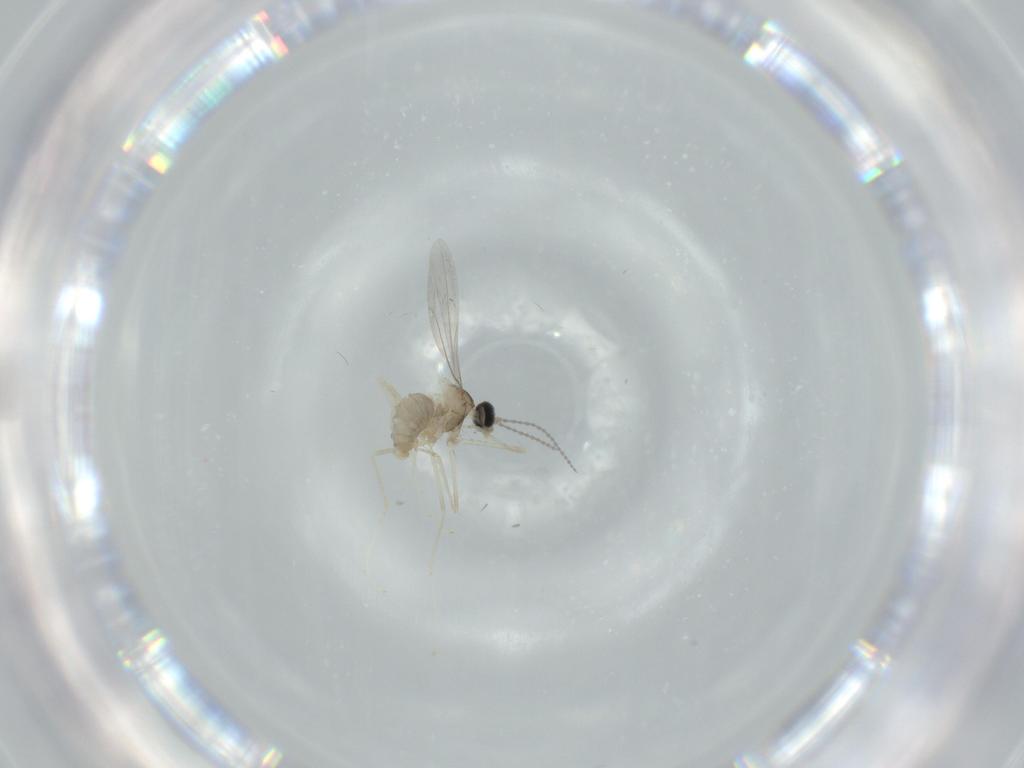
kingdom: Animalia
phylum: Arthropoda
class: Insecta
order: Diptera
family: Cecidomyiidae
